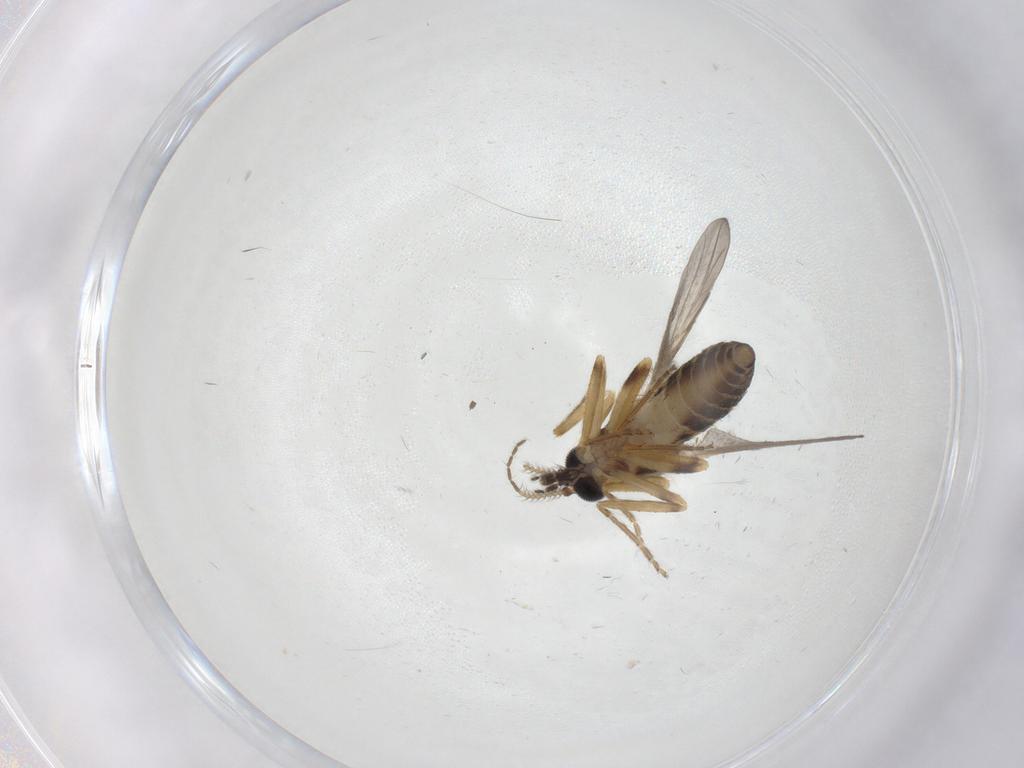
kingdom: Animalia
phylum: Arthropoda
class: Insecta
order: Diptera
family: Ceratopogonidae
